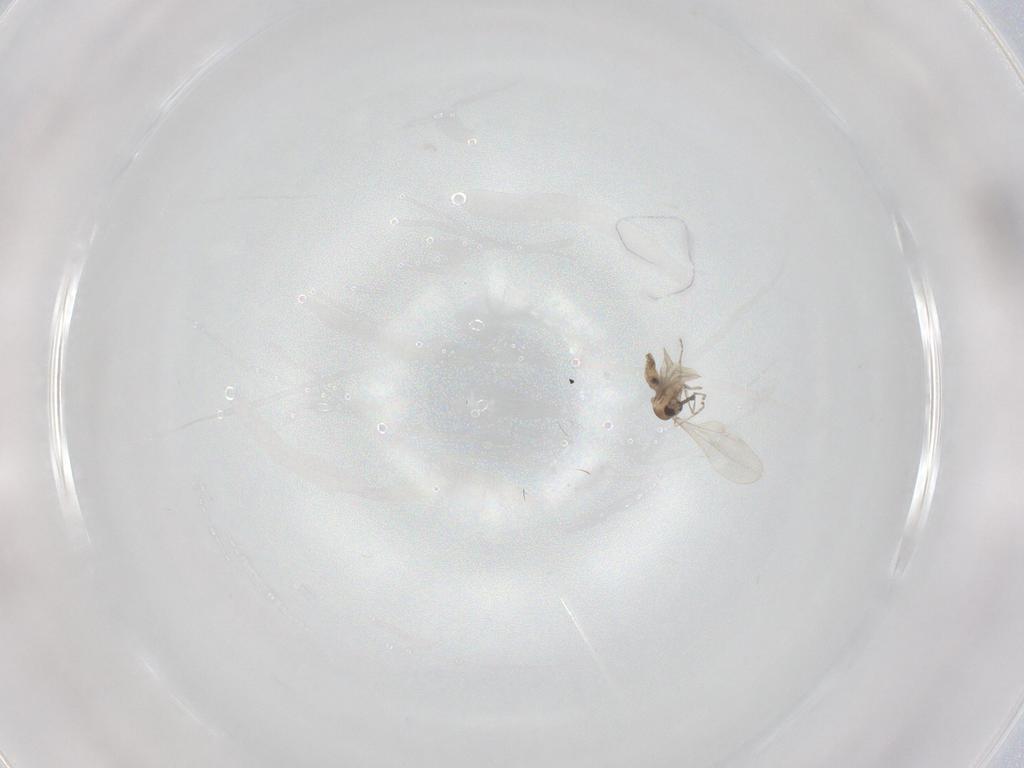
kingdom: Animalia
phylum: Arthropoda
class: Insecta
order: Diptera
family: Chironomidae
